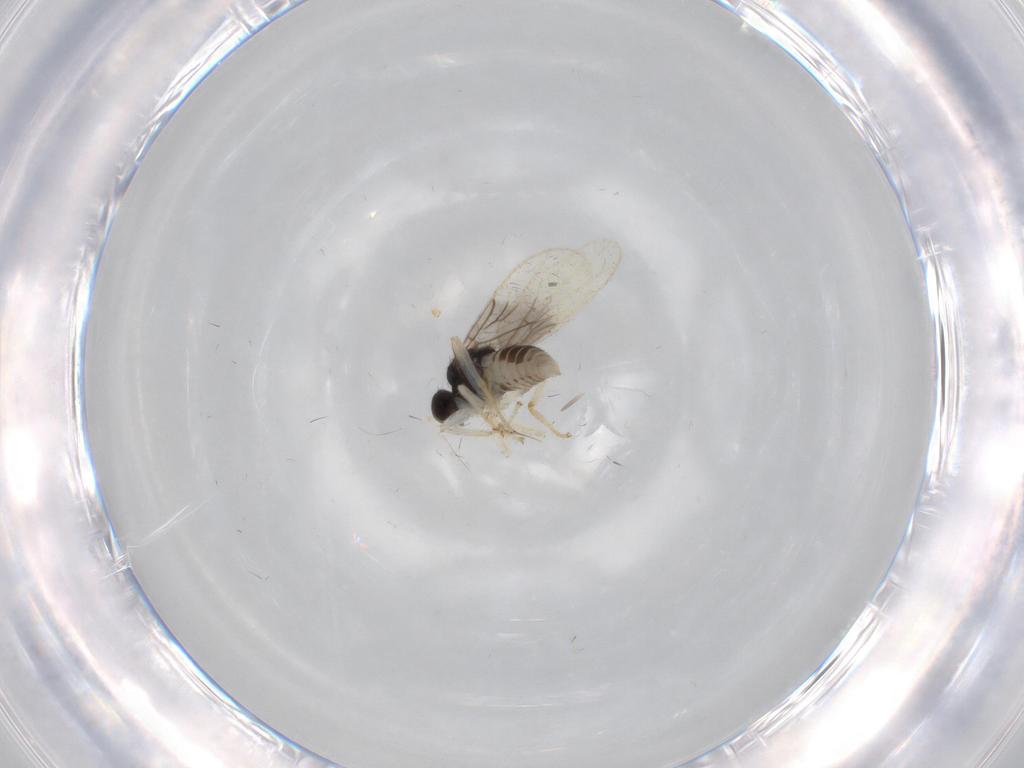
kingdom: Animalia
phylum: Arthropoda
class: Insecta
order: Diptera
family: Hybotidae
